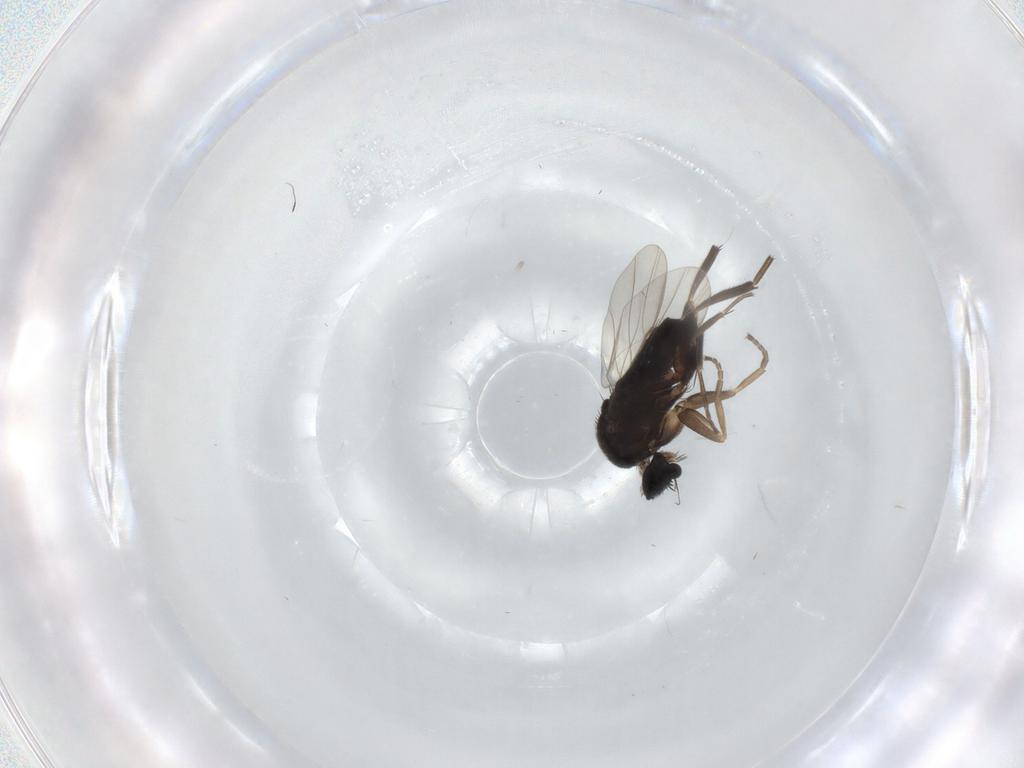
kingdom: Animalia
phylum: Arthropoda
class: Insecta
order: Diptera
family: Phoridae
